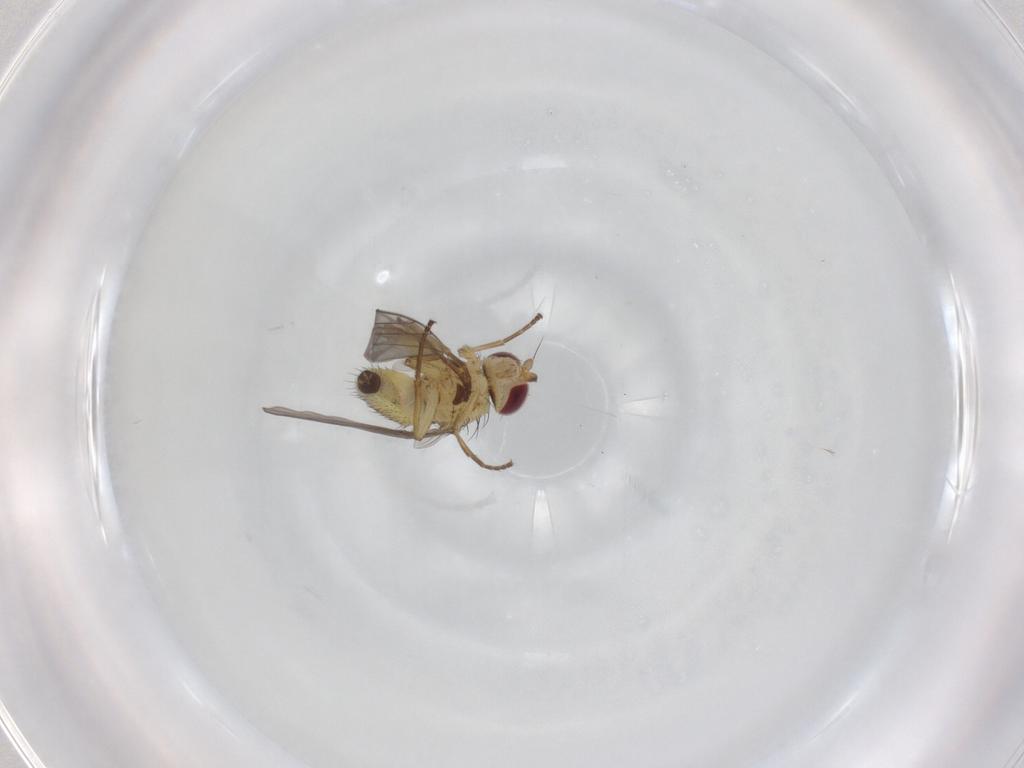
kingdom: Animalia
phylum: Arthropoda
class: Insecta
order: Diptera
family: Agromyzidae
